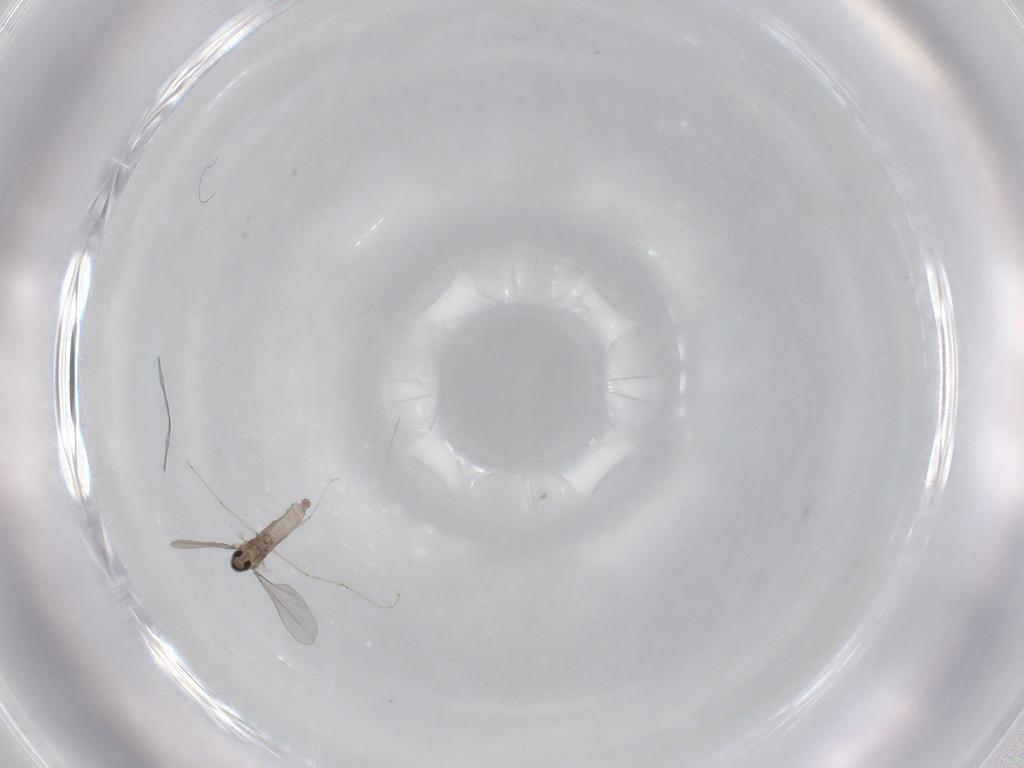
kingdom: Animalia
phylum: Arthropoda
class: Insecta
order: Diptera
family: Cecidomyiidae
